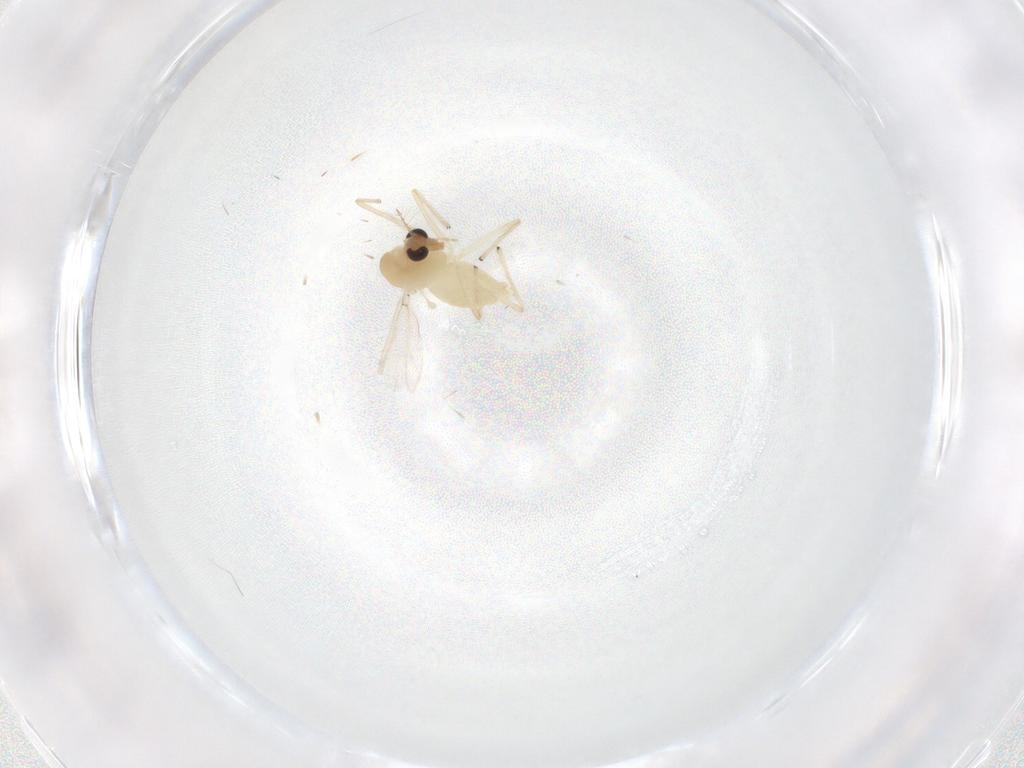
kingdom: Animalia
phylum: Arthropoda
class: Insecta
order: Diptera
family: Chironomidae
